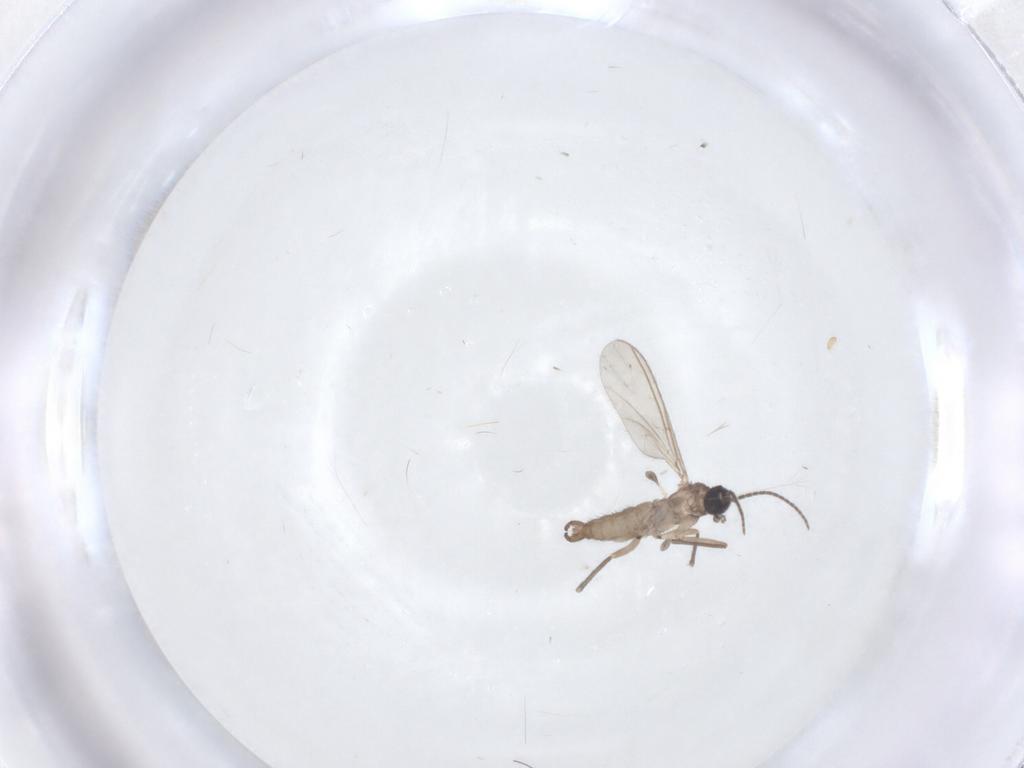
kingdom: Animalia
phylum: Arthropoda
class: Insecta
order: Diptera
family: Sciaridae
